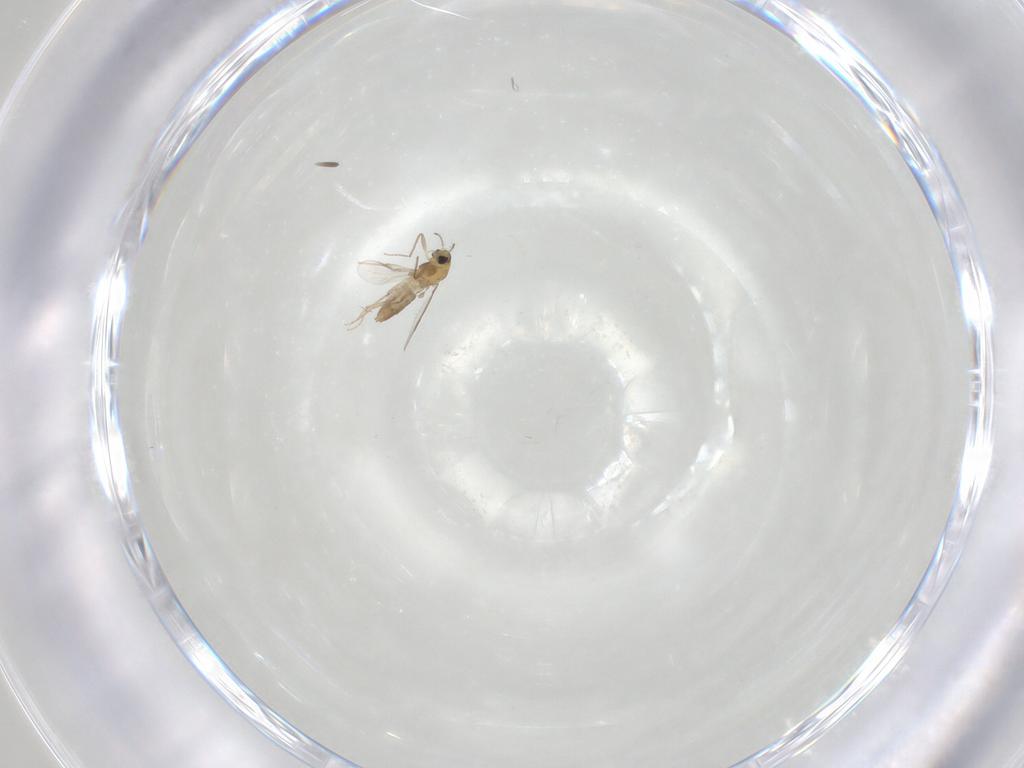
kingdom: Animalia
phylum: Arthropoda
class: Insecta
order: Diptera
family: Chironomidae
